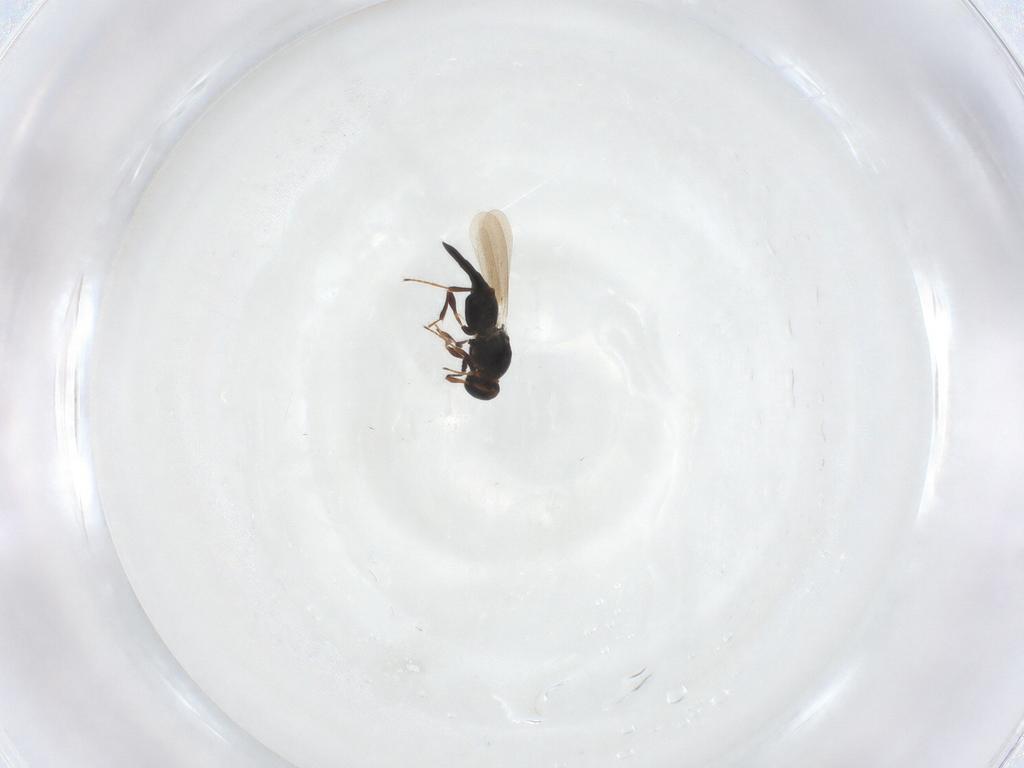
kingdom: Animalia
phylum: Arthropoda
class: Insecta
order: Hymenoptera
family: Platygastridae
